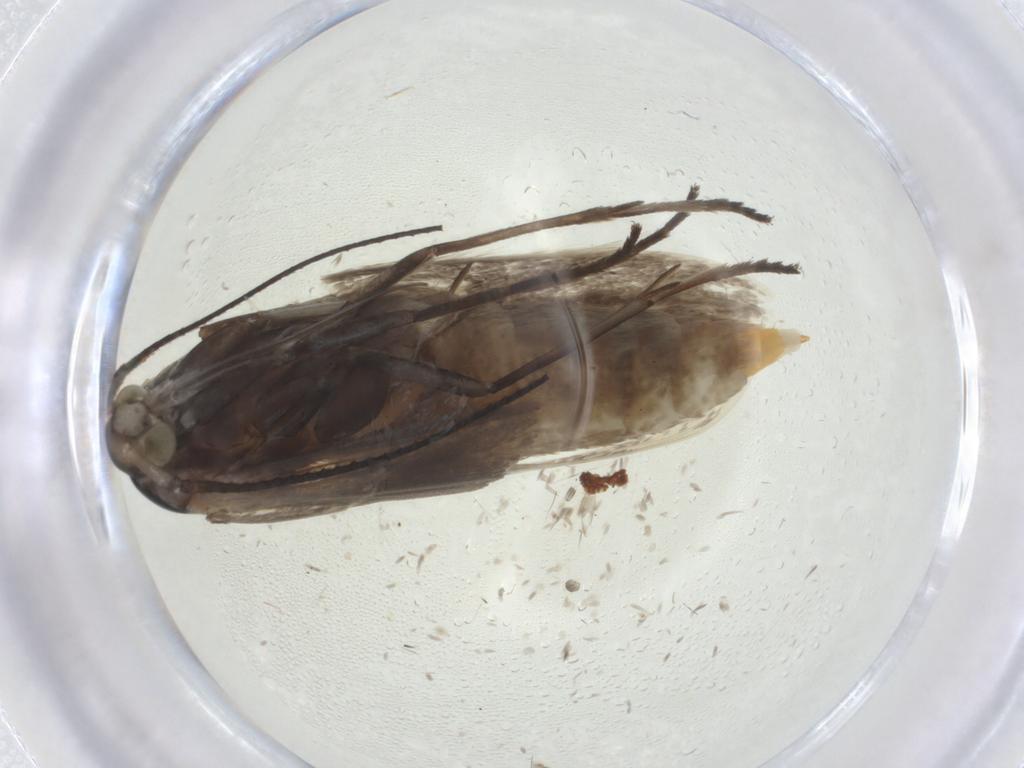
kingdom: Animalia
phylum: Arthropoda
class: Insecta
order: Lepidoptera
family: Coleophoridae
